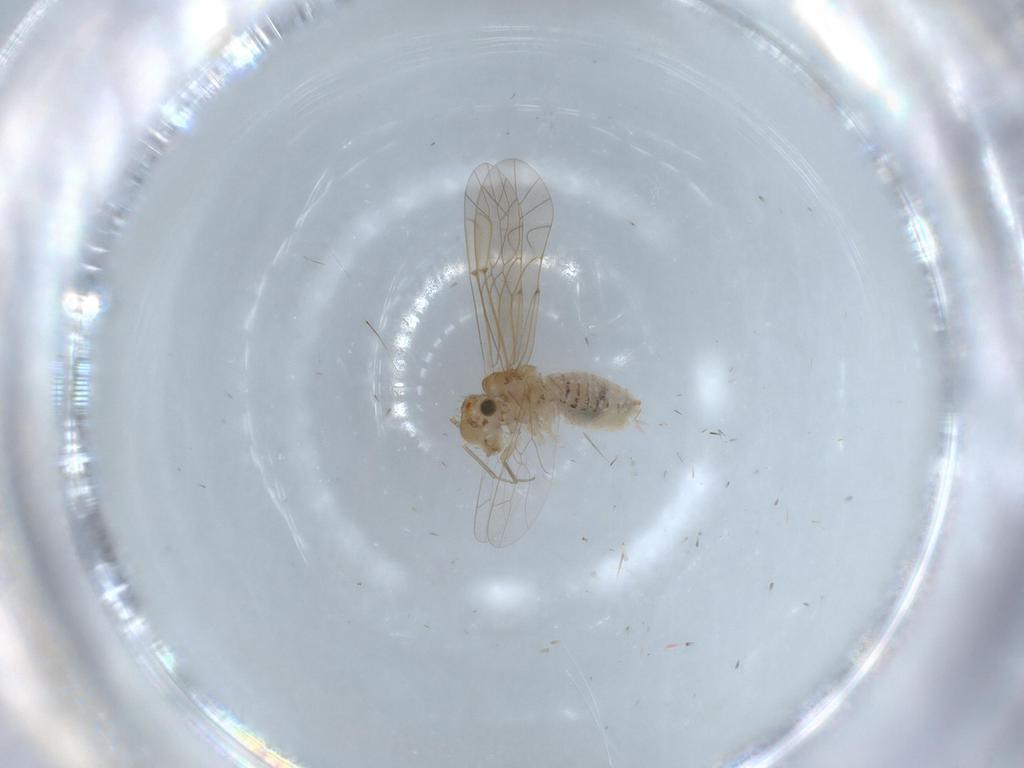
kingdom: Animalia
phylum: Arthropoda
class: Insecta
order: Psocodea
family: Lachesillidae
